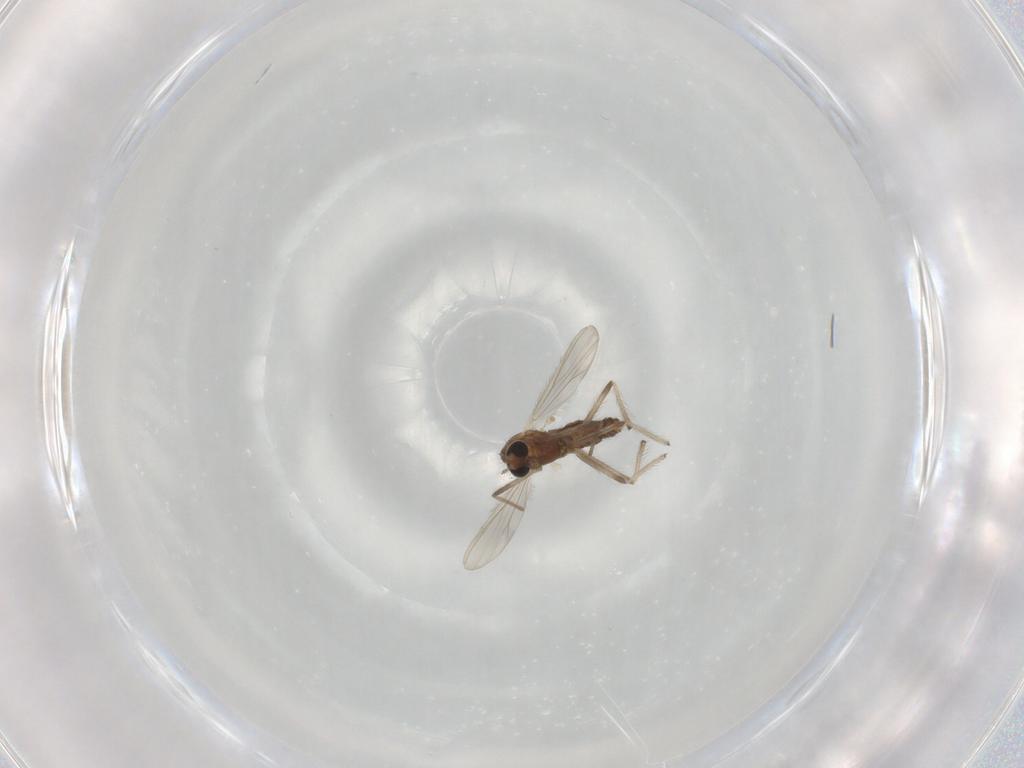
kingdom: Animalia
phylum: Arthropoda
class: Insecta
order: Diptera
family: Chironomidae
